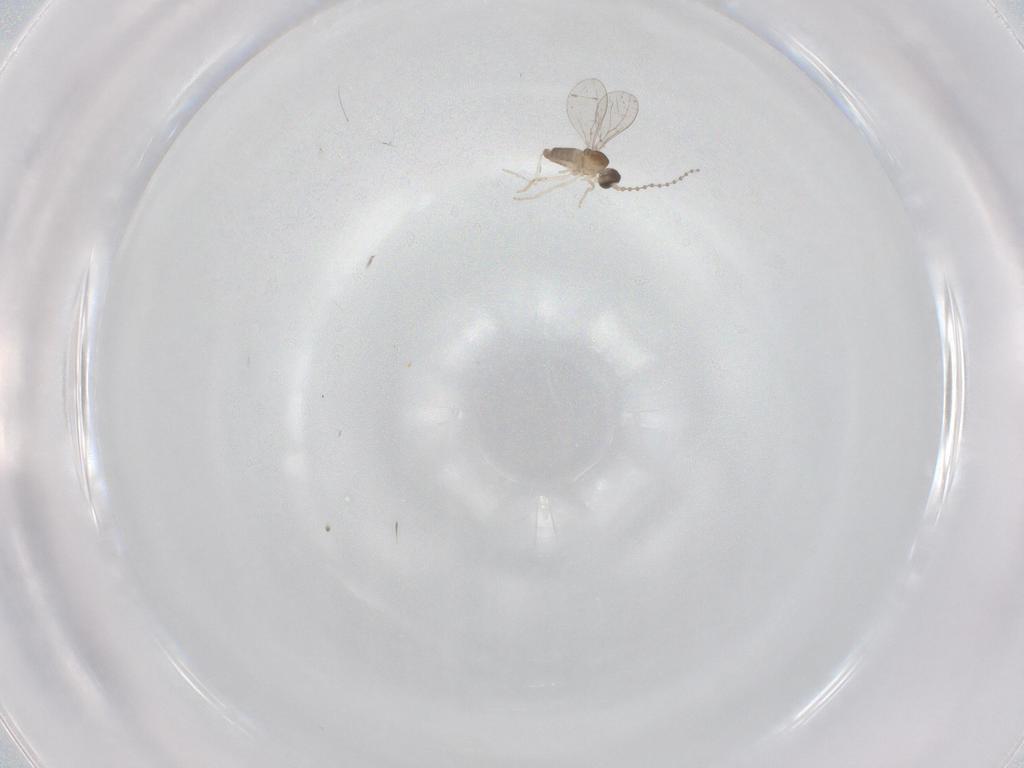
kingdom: Animalia
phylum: Arthropoda
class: Insecta
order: Diptera
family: Cecidomyiidae
